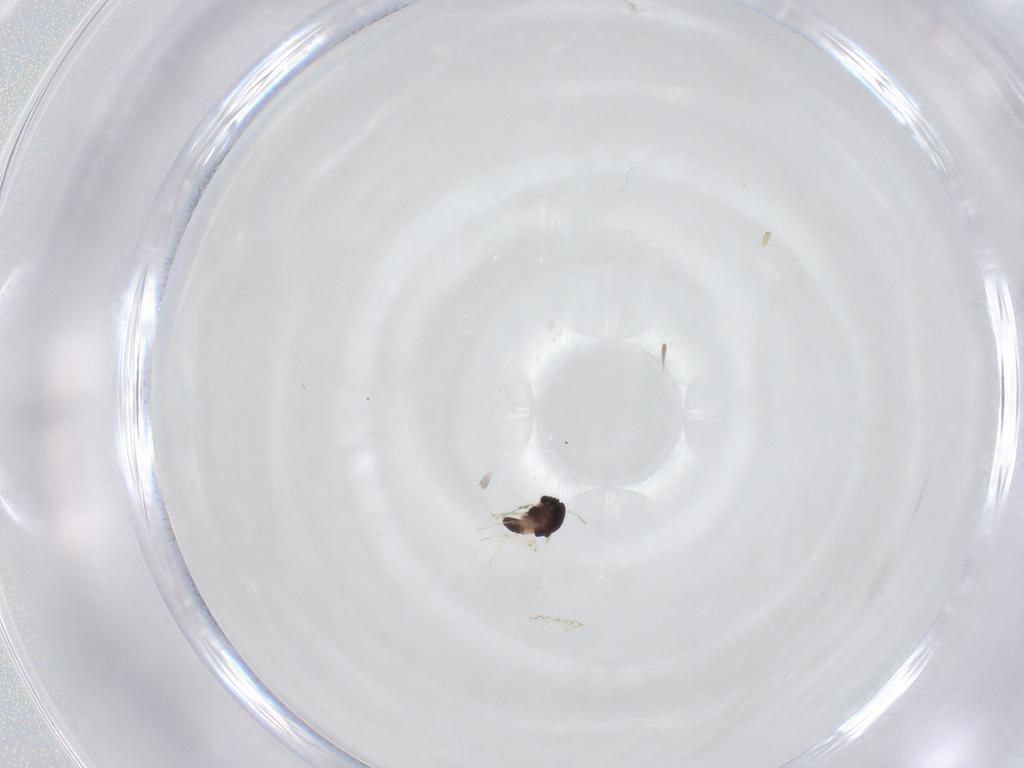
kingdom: Animalia
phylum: Arthropoda
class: Insecta
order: Diptera
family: Chironomidae
